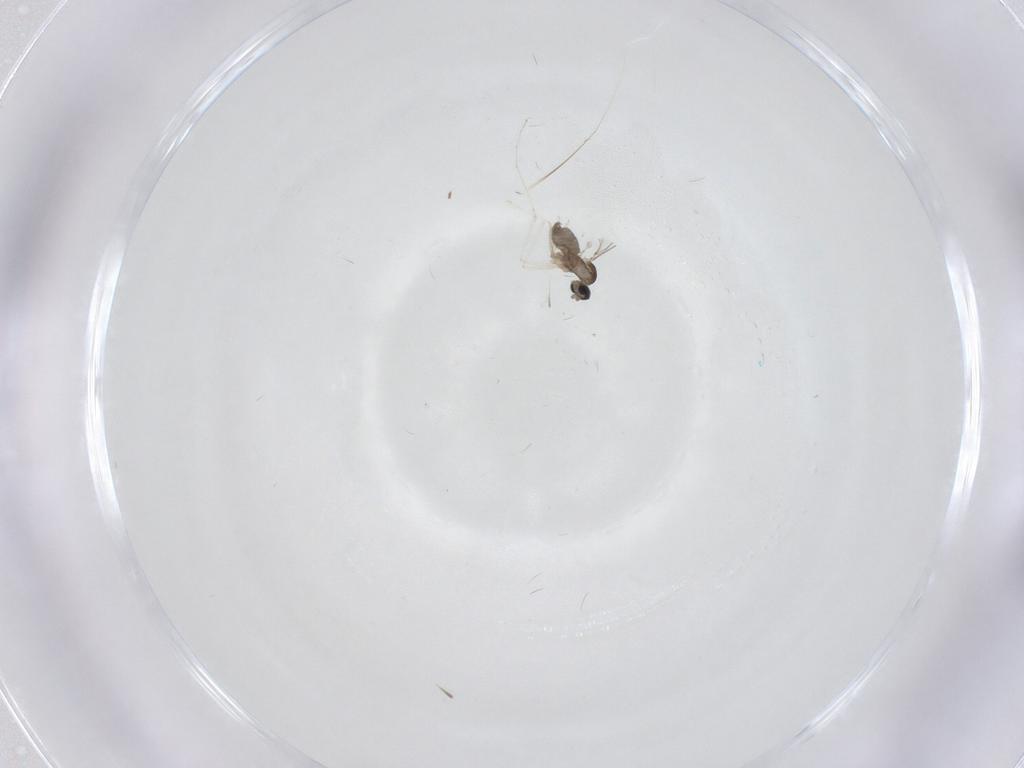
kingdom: Animalia
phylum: Arthropoda
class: Insecta
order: Diptera
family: Cecidomyiidae
